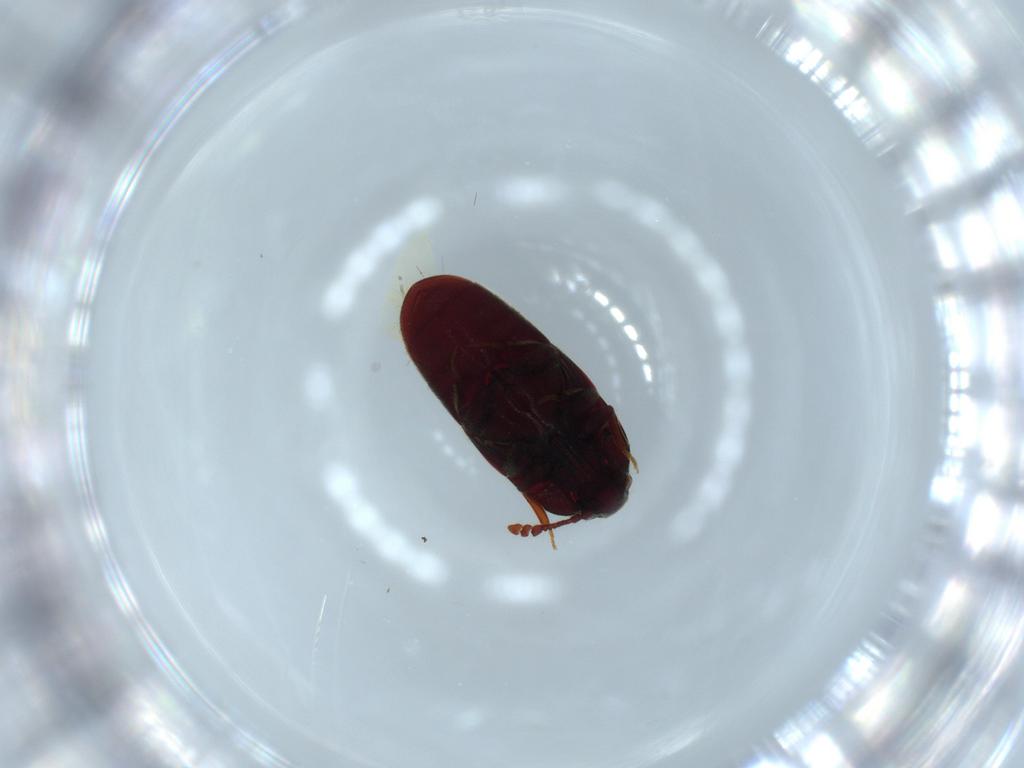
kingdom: Animalia
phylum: Arthropoda
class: Insecta
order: Coleoptera
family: Throscidae
